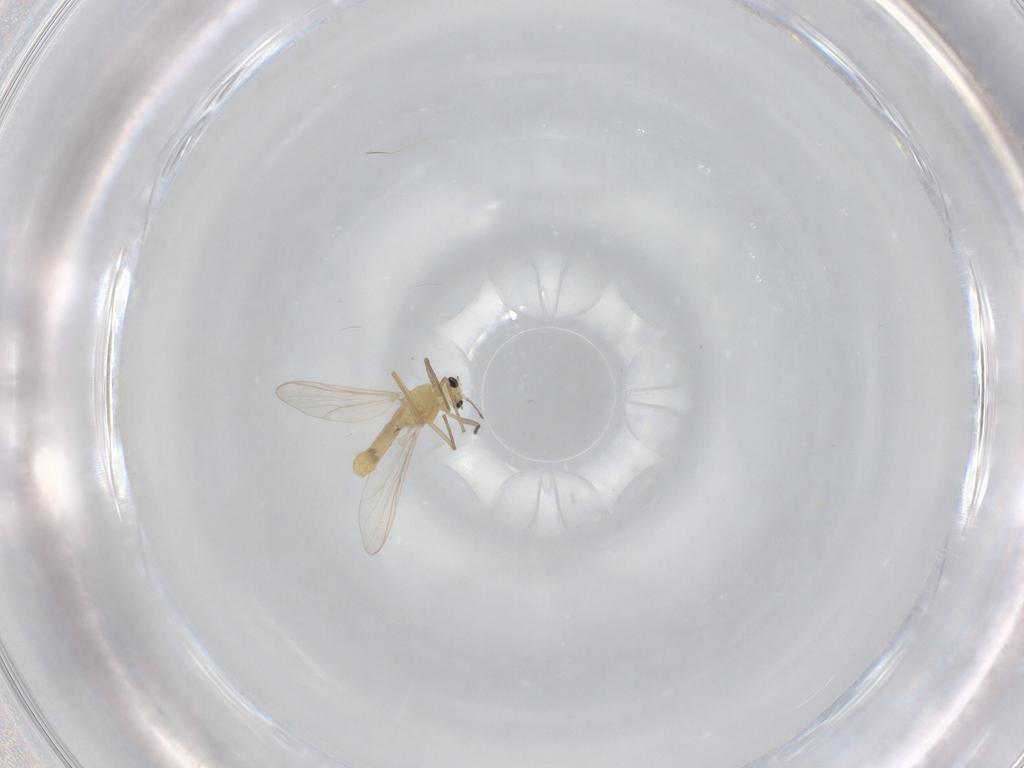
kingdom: Animalia
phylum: Arthropoda
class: Insecta
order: Diptera
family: Chironomidae
